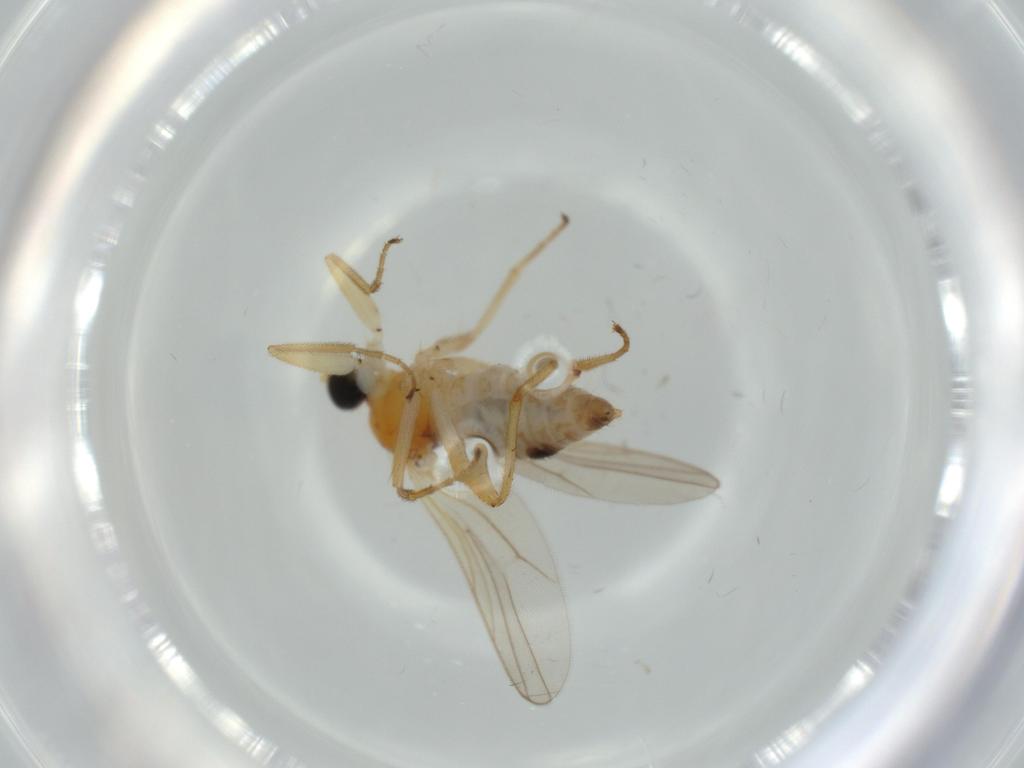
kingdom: Animalia
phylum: Arthropoda
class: Insecta
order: Diptera
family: Hybotidae
